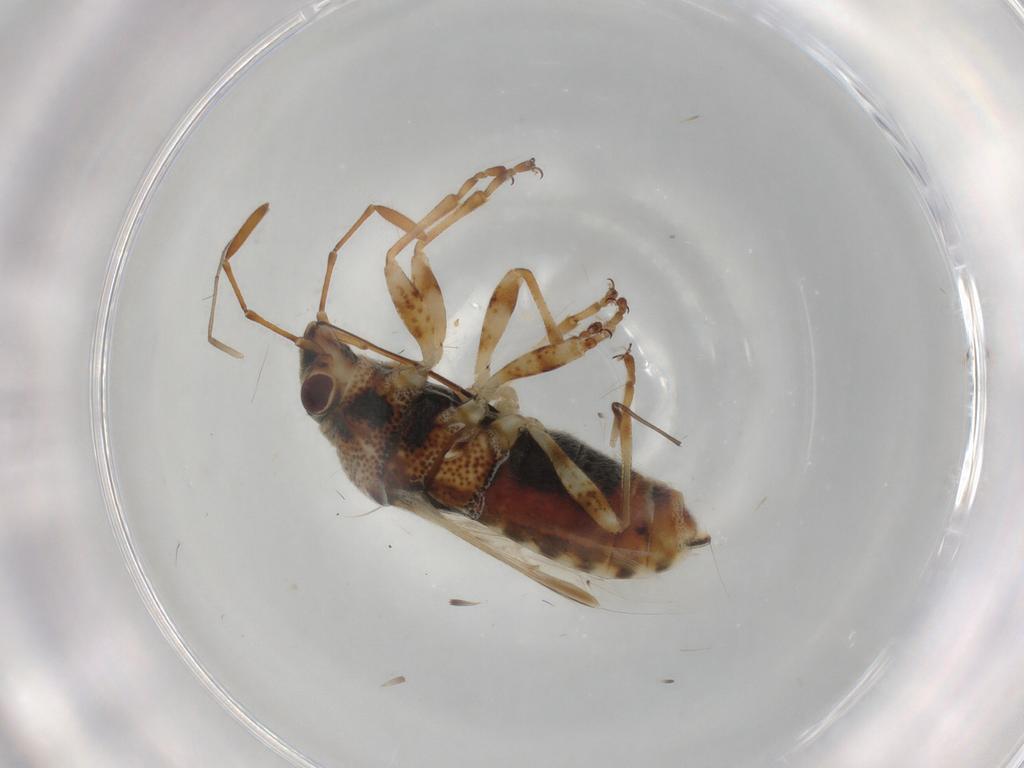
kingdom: Animalia
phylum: Arthropoda
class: Insecta
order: Hemiptera
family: Lygaeidae
